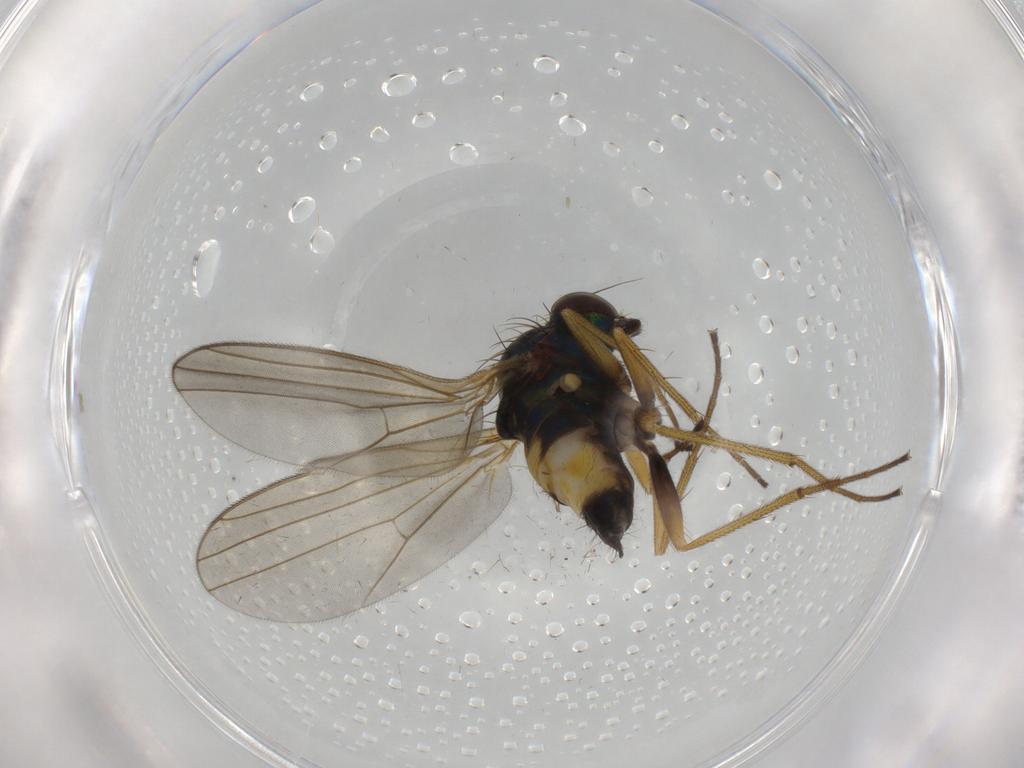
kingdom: Animalia
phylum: Arthropoda
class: Insecta
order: Diptera
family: Dolichopodidae
